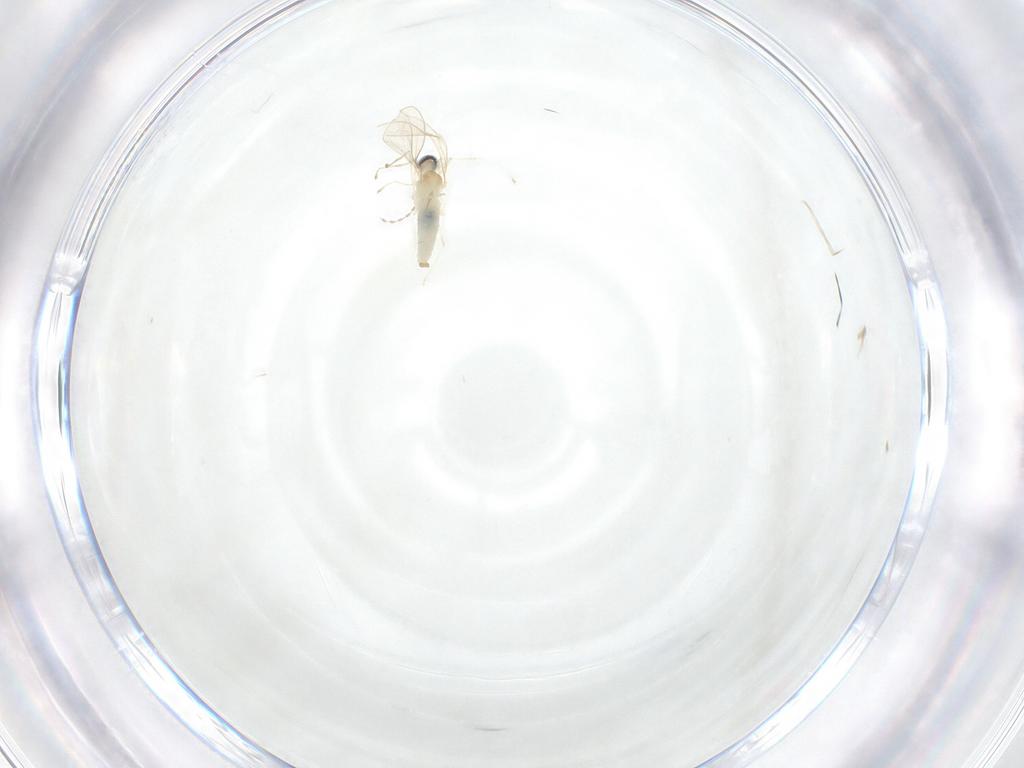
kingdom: Animalia
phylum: Arthropoda
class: Insecta
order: Diptera
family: Cecidomyiidae
